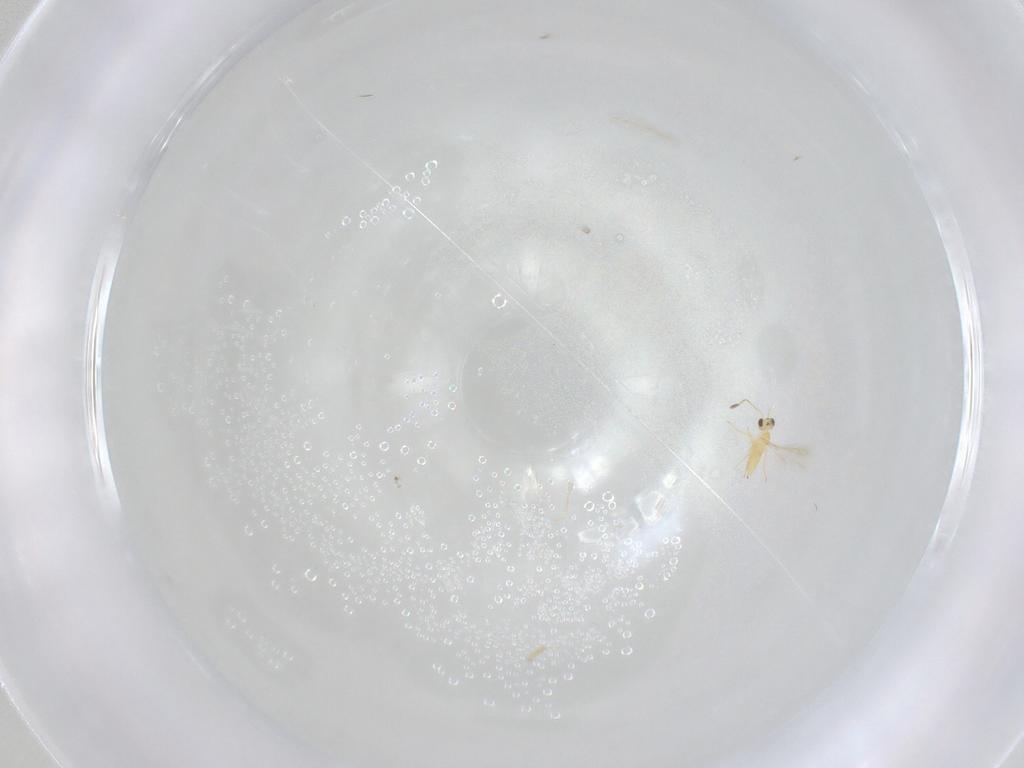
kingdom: Animalia
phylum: Arthropoda
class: Insecta
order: Hymenoptera
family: Mymaridae
